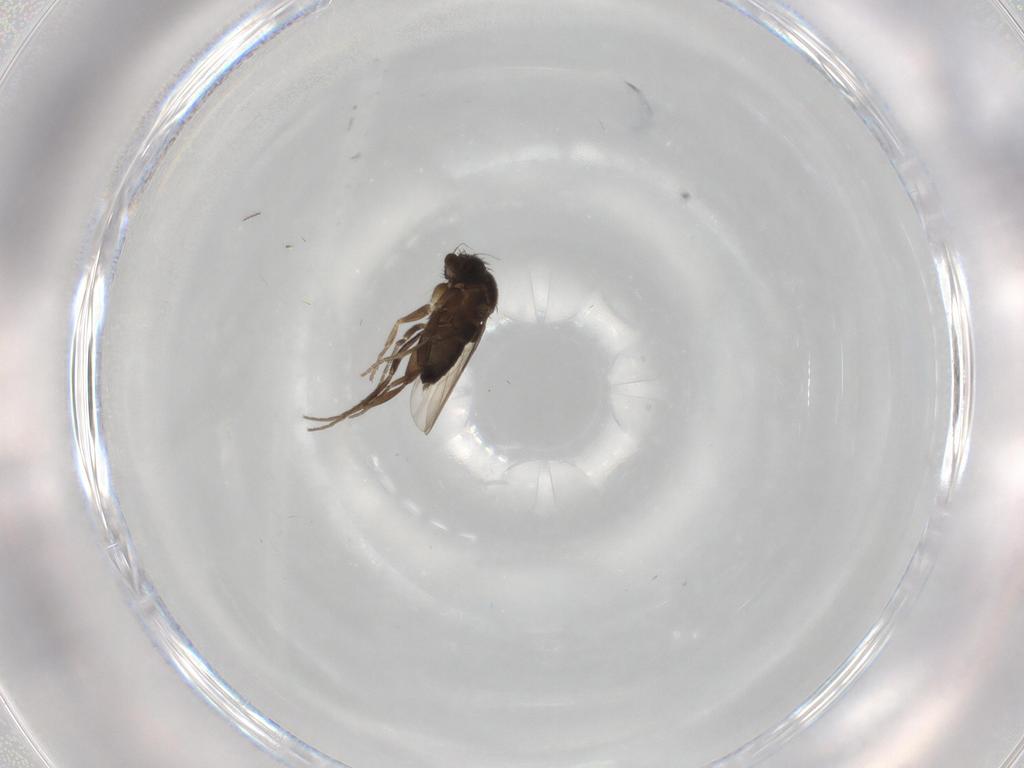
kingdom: Animalia
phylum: Arthropoda
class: Insecta
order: Diptera
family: Phoridae
